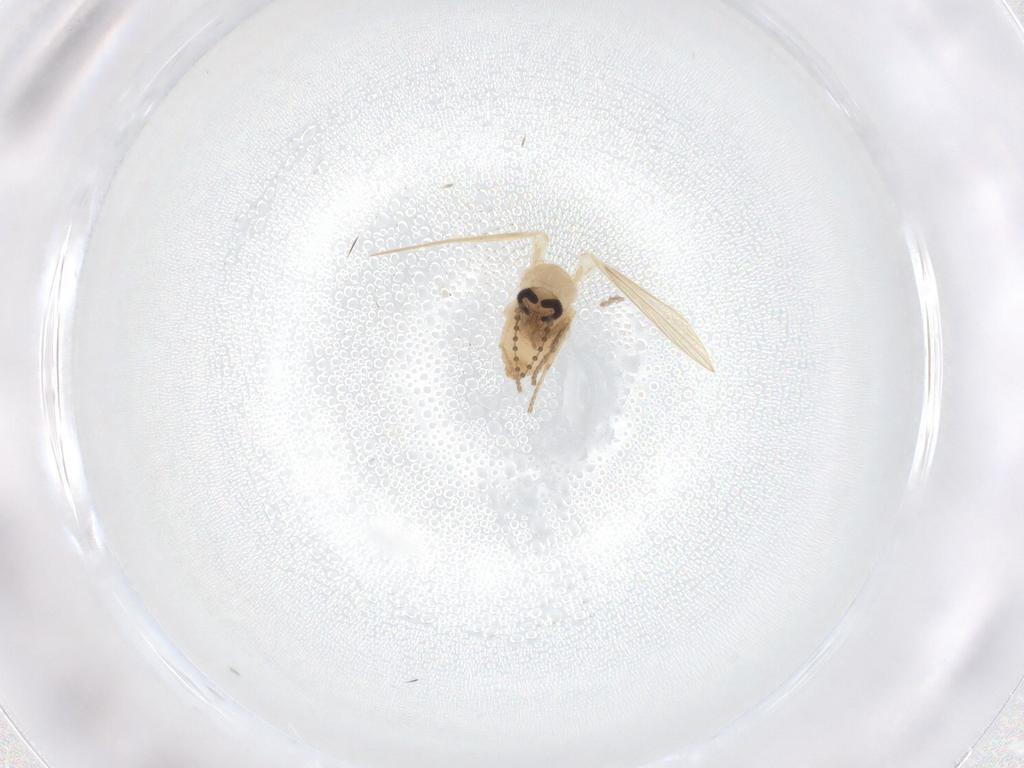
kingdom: Animalia
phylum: Arthropoda
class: Insecta
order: Diptera
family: Psychodidae
